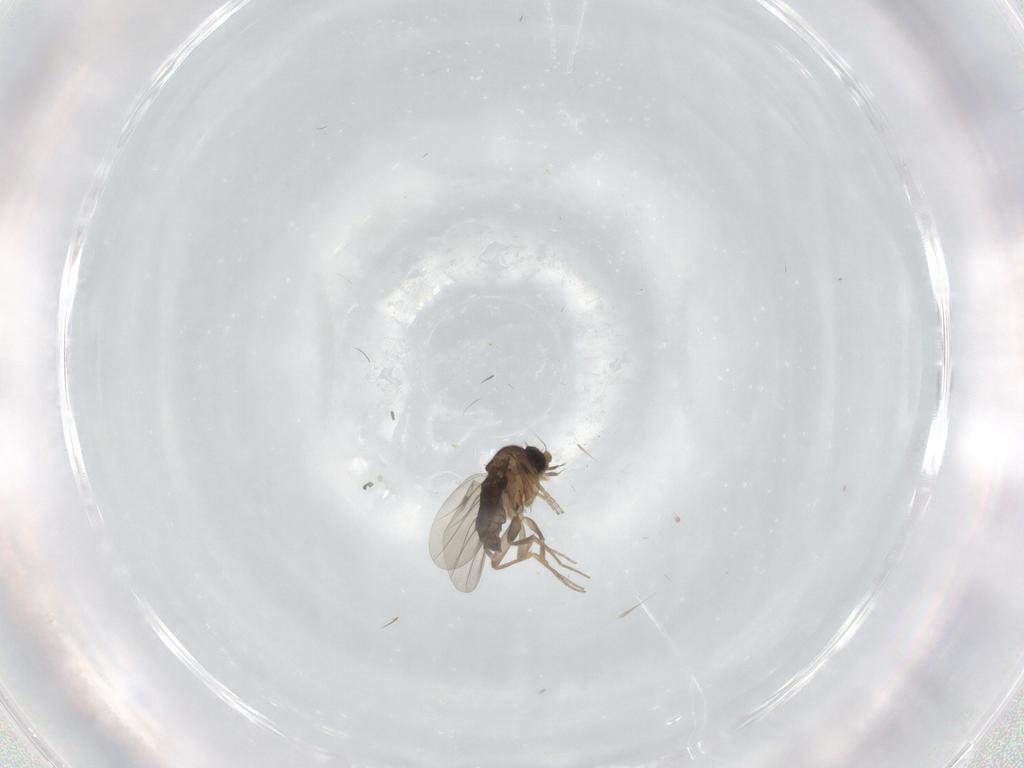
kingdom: Animalia
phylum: Arthropoda
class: Insecta
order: Diptera
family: Phoridae
